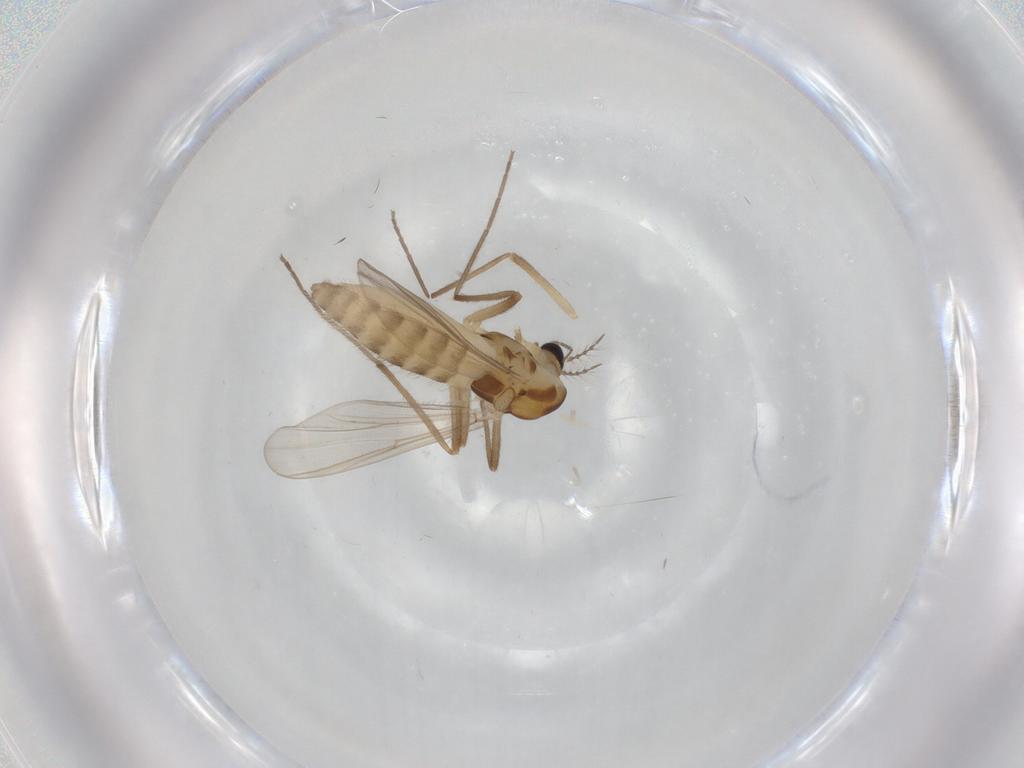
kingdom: Animalia
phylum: Arthropoda
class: Insecta
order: Diptera
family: Chironomidae
